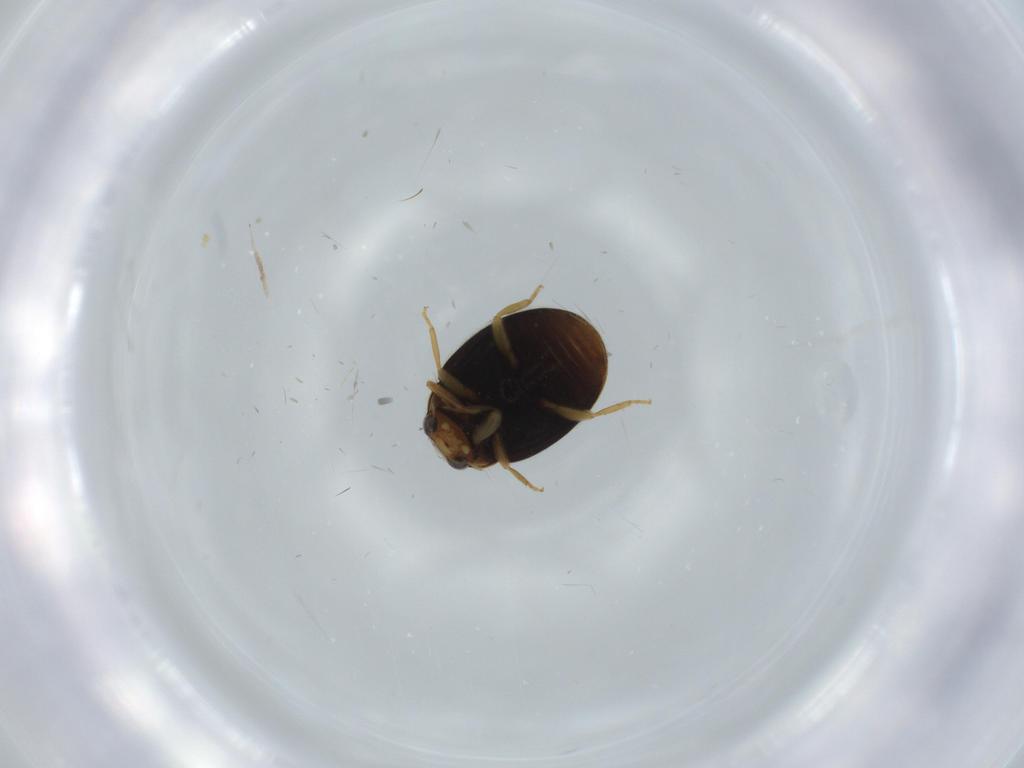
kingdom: Animalia
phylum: Arthropoda
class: Insecta
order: Coleoptera
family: Coccinellidae
